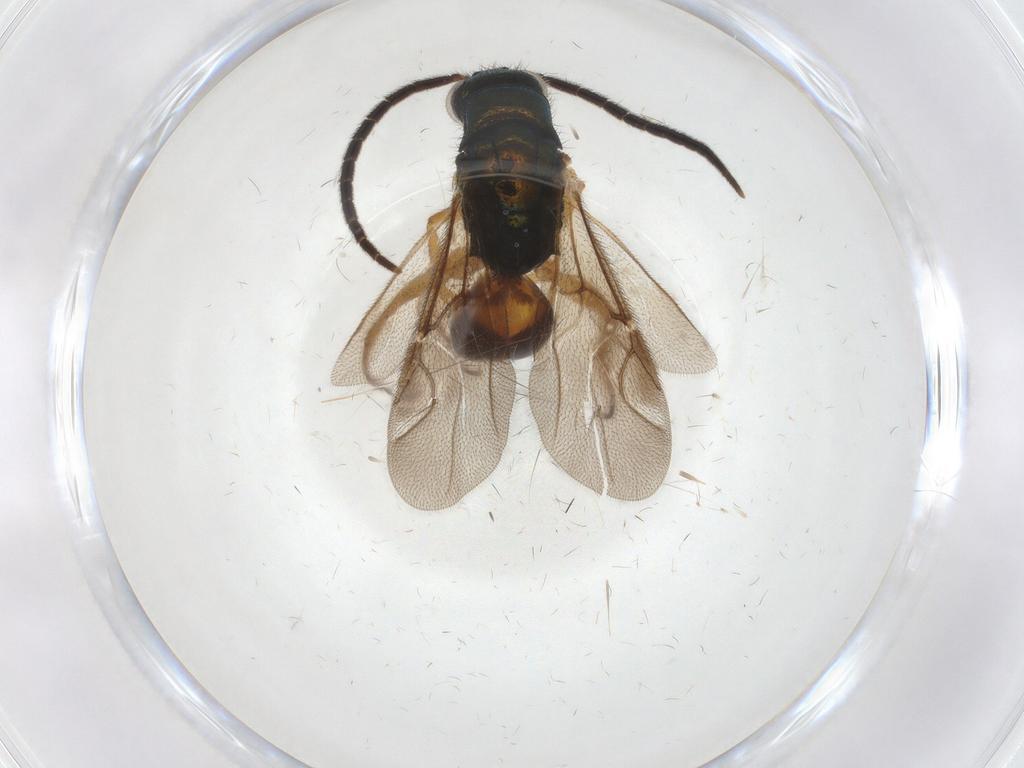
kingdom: Animalia
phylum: Arthropoda
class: Insecta
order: Hymenoptera
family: Chrysididae
